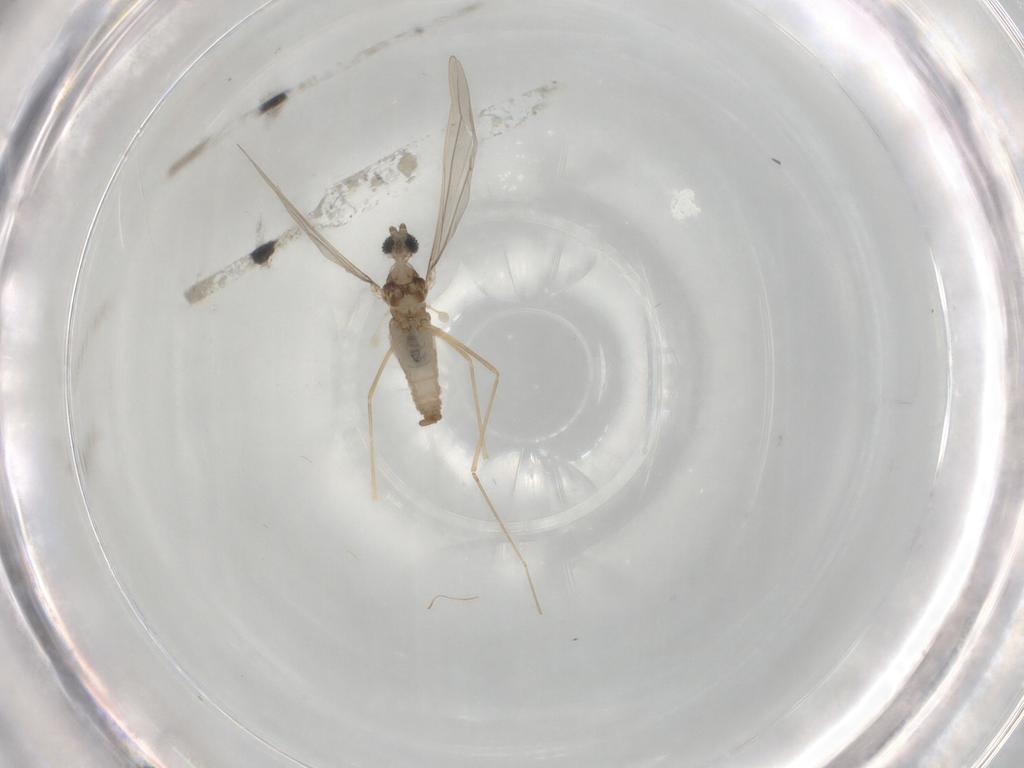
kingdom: Animalia
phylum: Arthropoda
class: Insecta
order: Diptera
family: Cecidomyiidae
